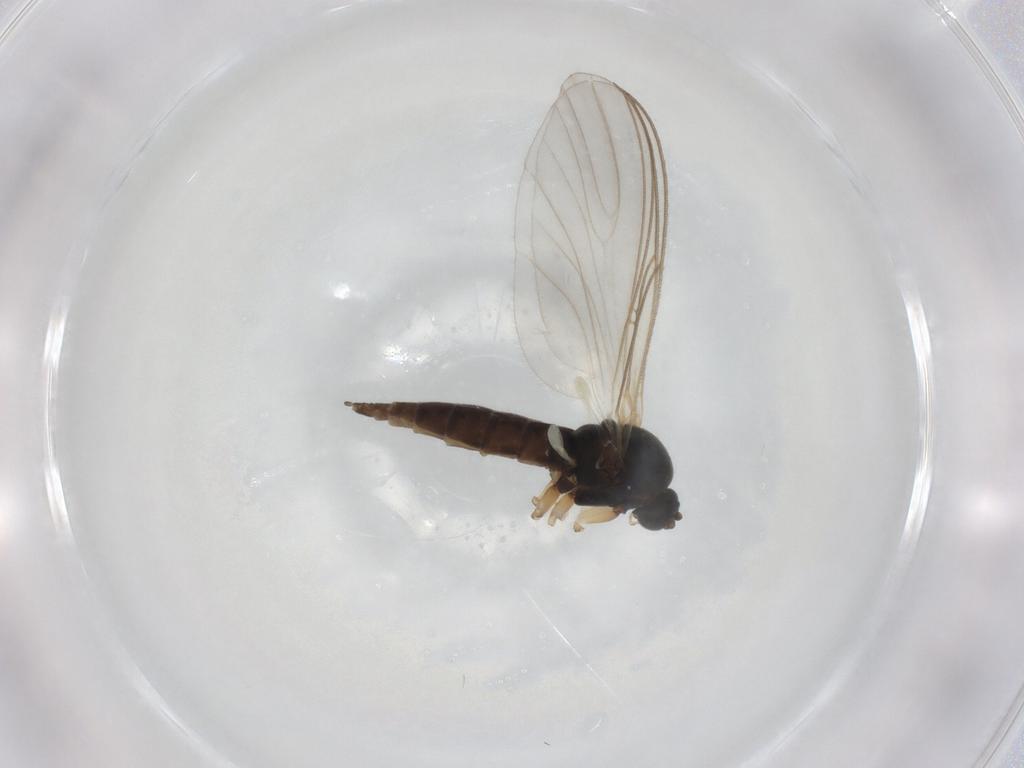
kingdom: Animalia
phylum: Arthropoda
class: Insecta
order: Diptera
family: Sciaridae
